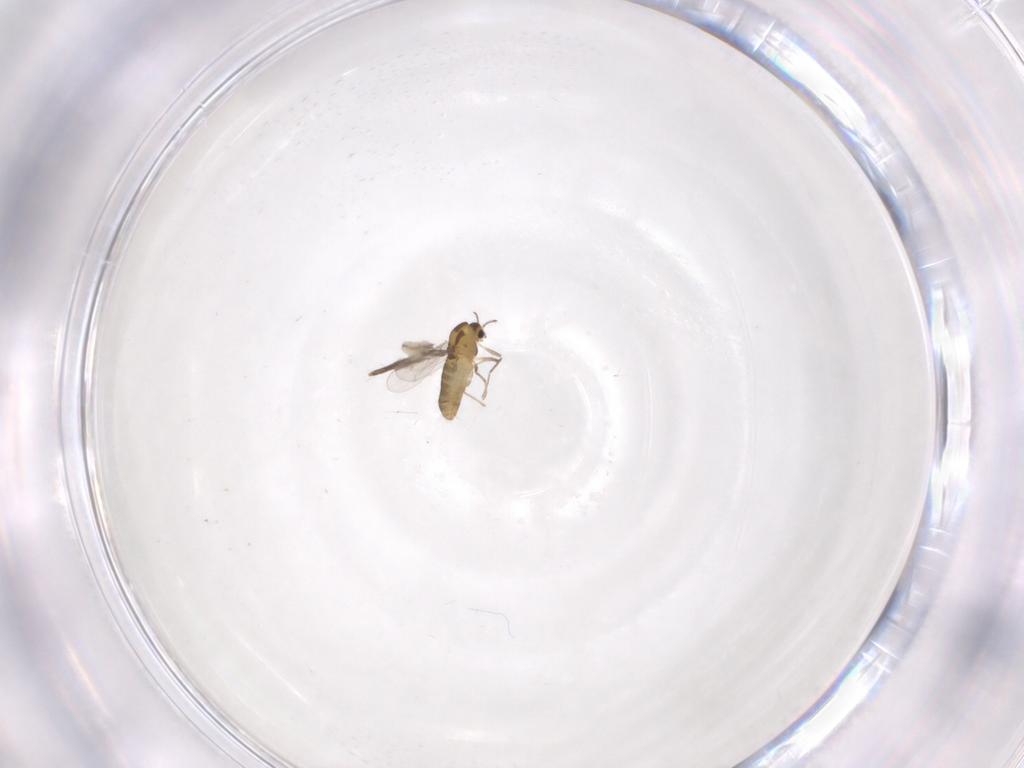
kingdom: Animalia
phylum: Arthropoda
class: Insecta
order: Diptera
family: Chironomidae
